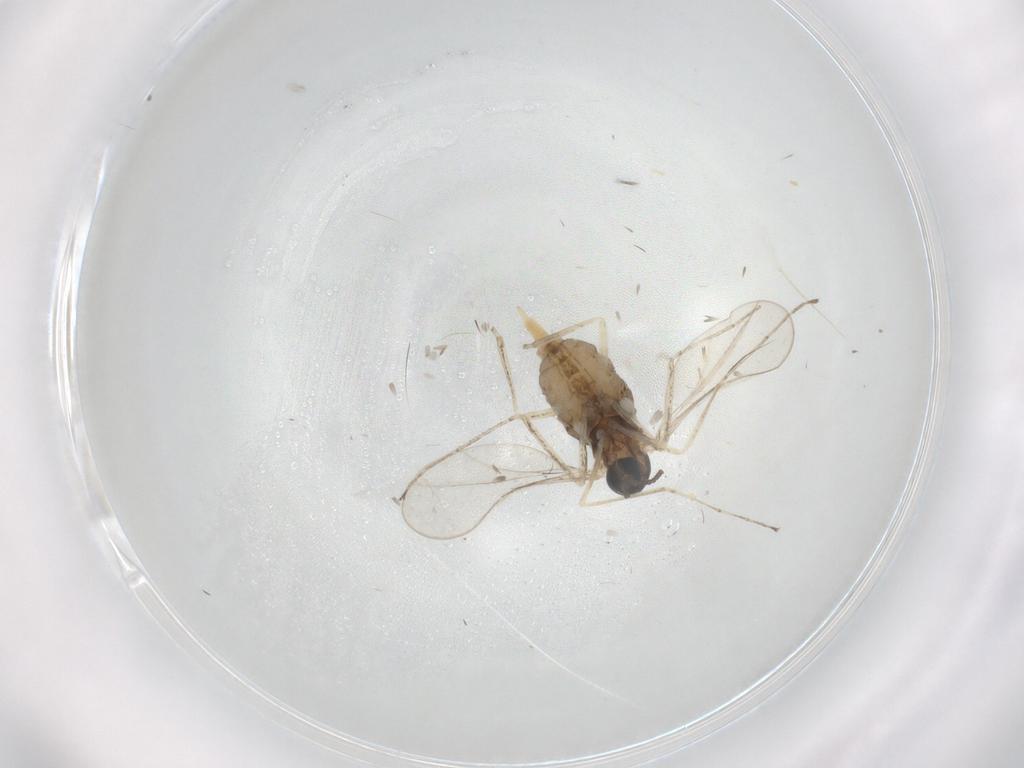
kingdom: Animalia
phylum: Arthropoda
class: Insecta
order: Diptera
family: Cecidomyiidae
